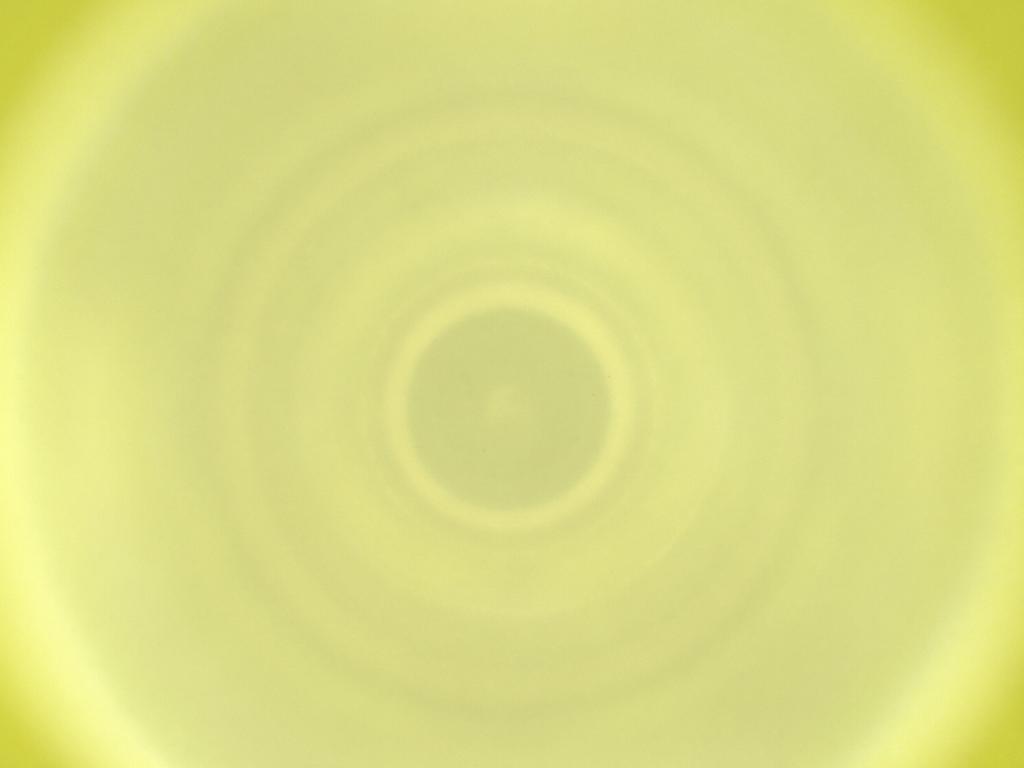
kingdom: Animalia
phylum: Arthropoda
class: Insecta
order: Diptera
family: Cecidomyiidae
